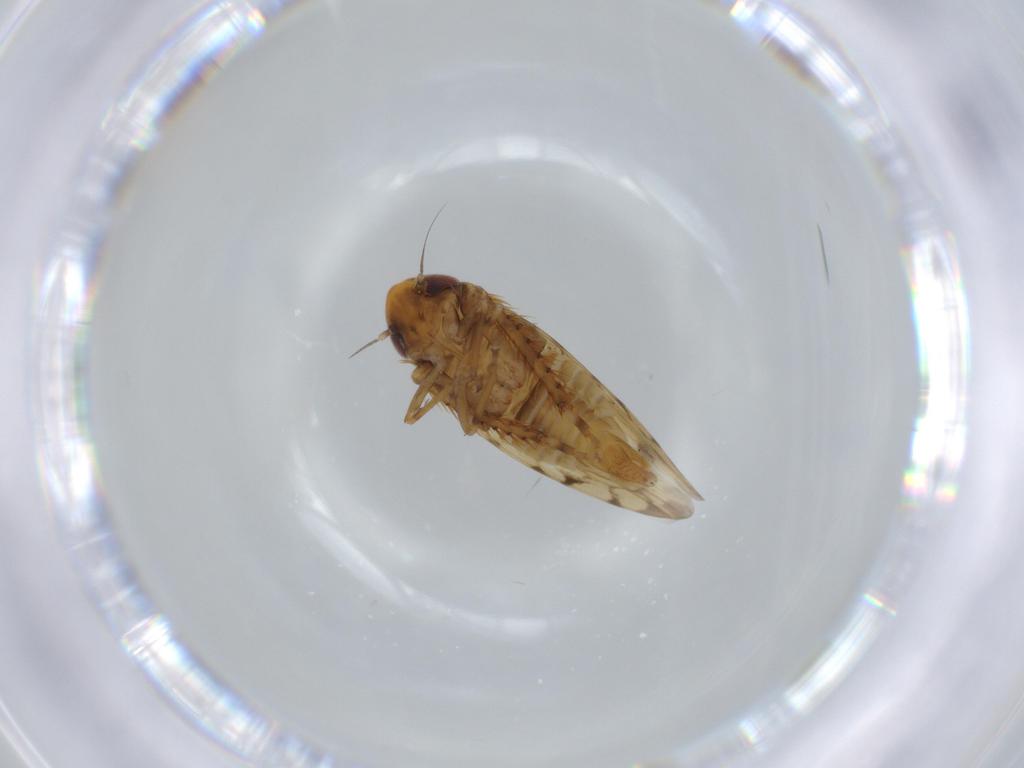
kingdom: Animalia
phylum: Arthropoda
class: Insecta
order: Hemiptera
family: Cicadellidae
